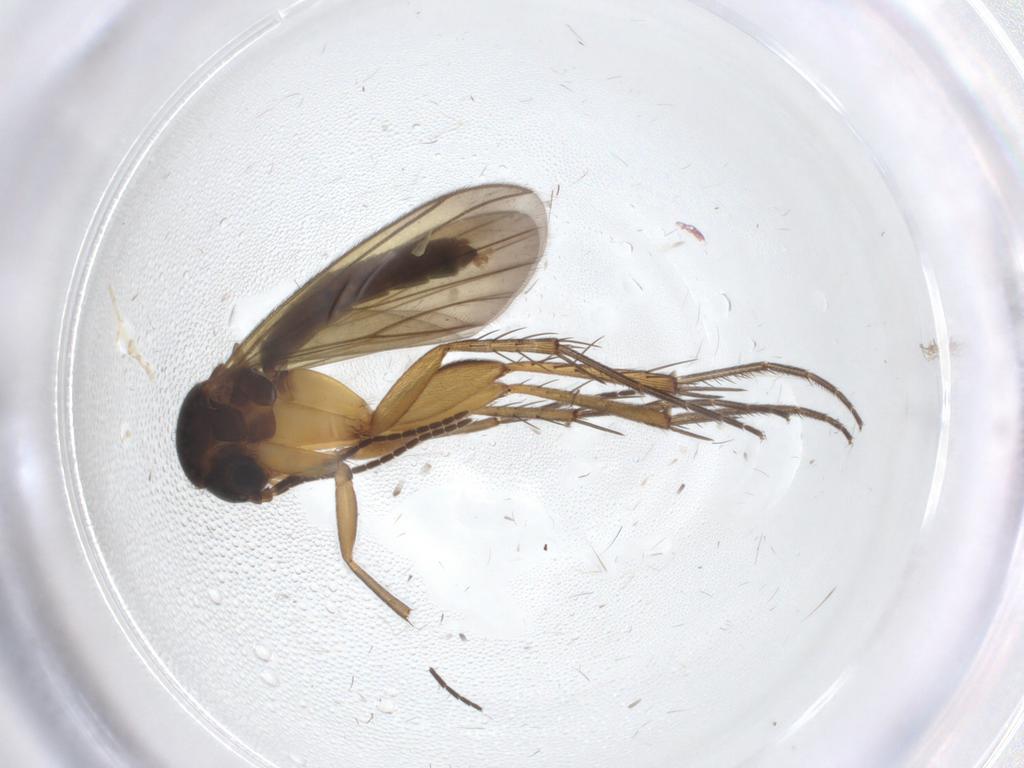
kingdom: Animalia
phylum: Arthropoda
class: Insecta
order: Diptera
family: Mycetophilidae
